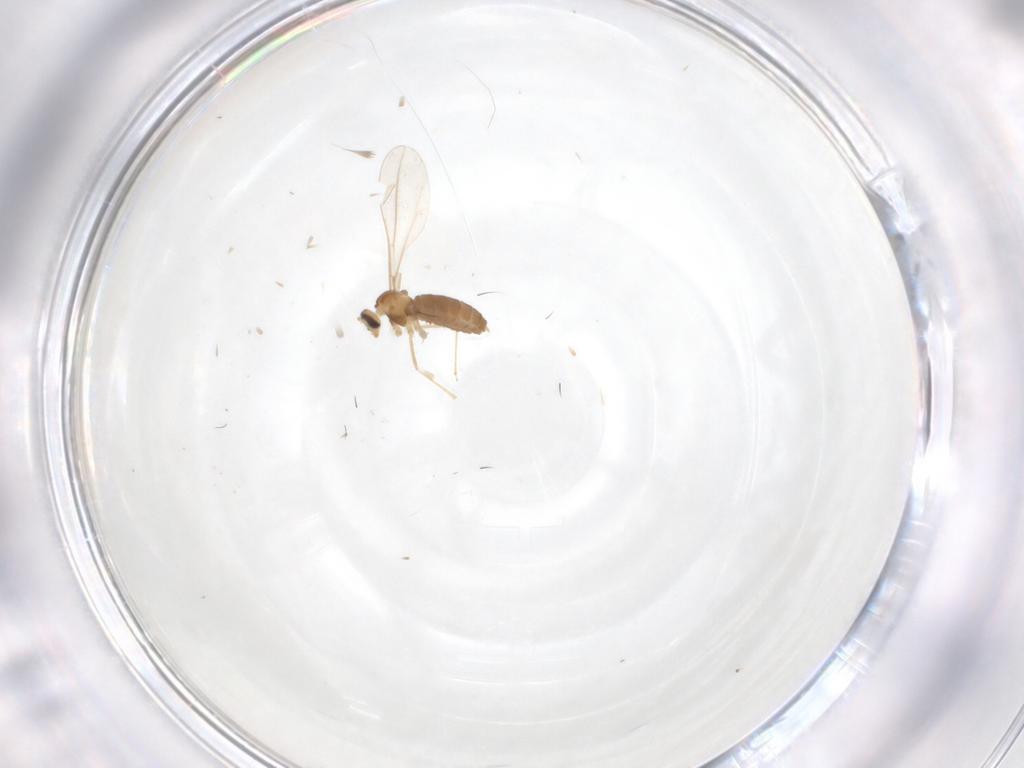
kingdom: Animalia
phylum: Arthropoda
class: Insecta
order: Diptera
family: Cecidomyiidae
